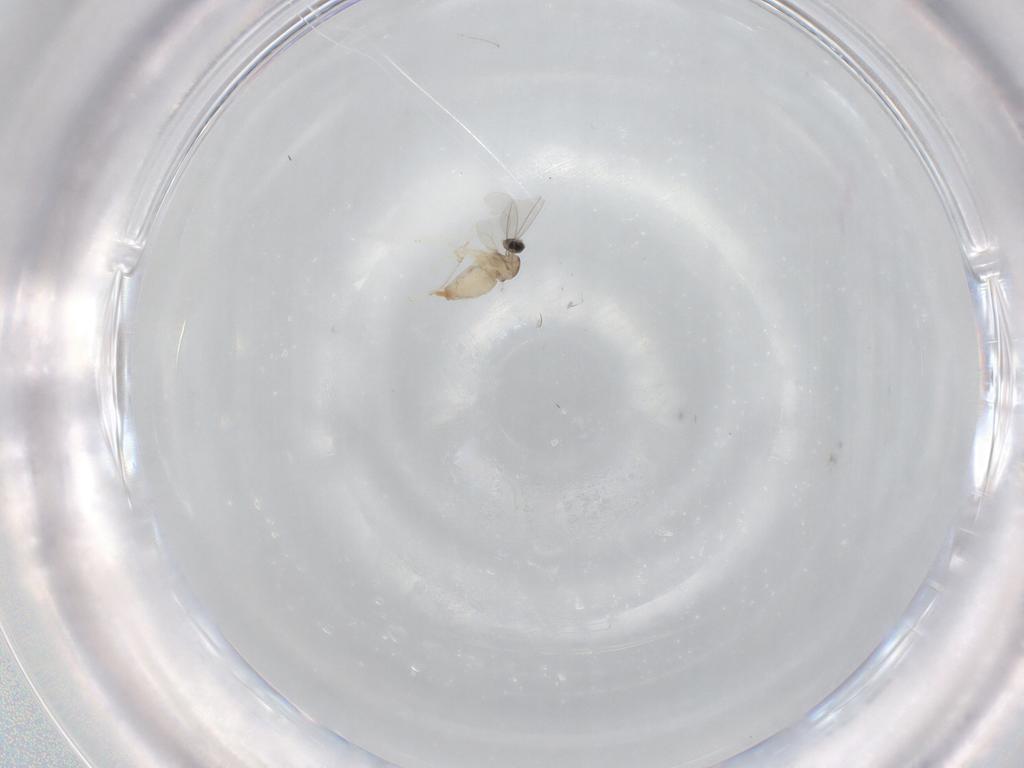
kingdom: Animalia
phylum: Arthropoda
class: Insecta
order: Diptera
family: Cecidomyiidae
